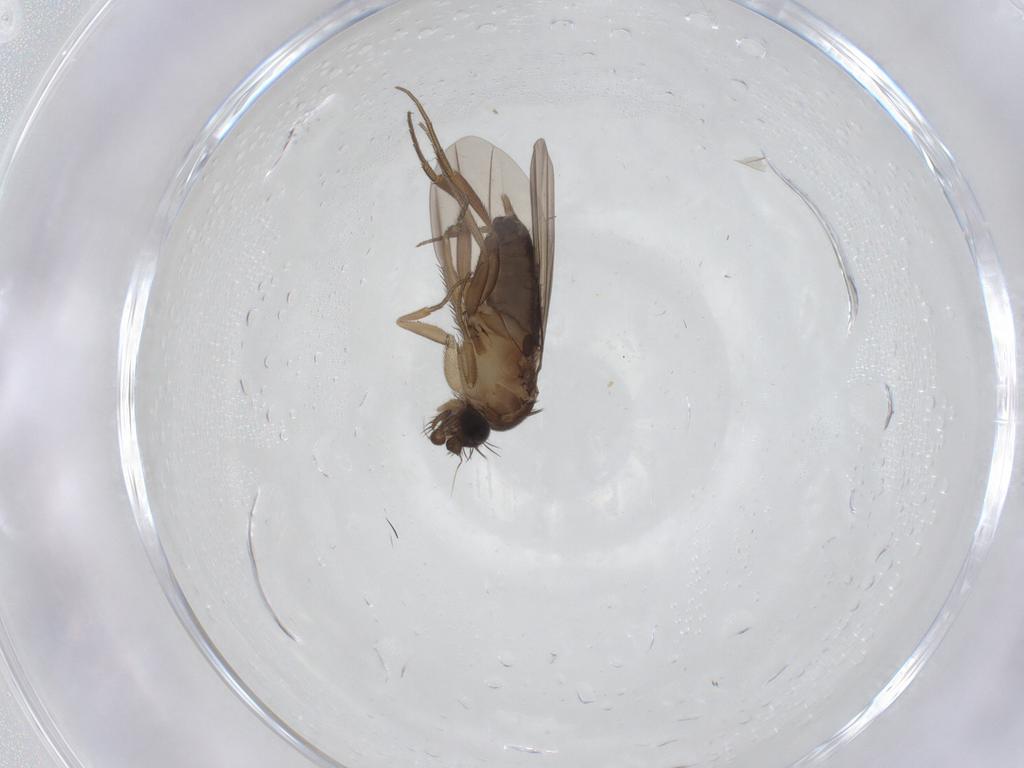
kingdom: Animalia
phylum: Arthropoda
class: Insecta
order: Diptera
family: Phoridae
